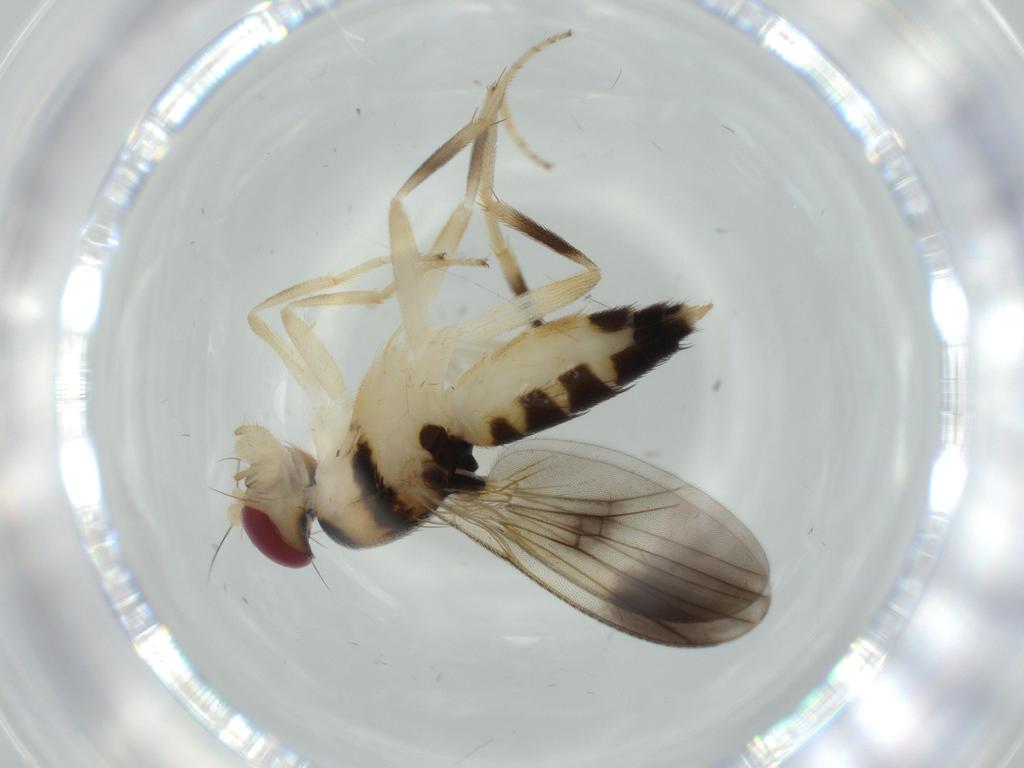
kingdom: Animalia
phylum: Arthropoda
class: Insecta
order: Diptera
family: Clusiidae
